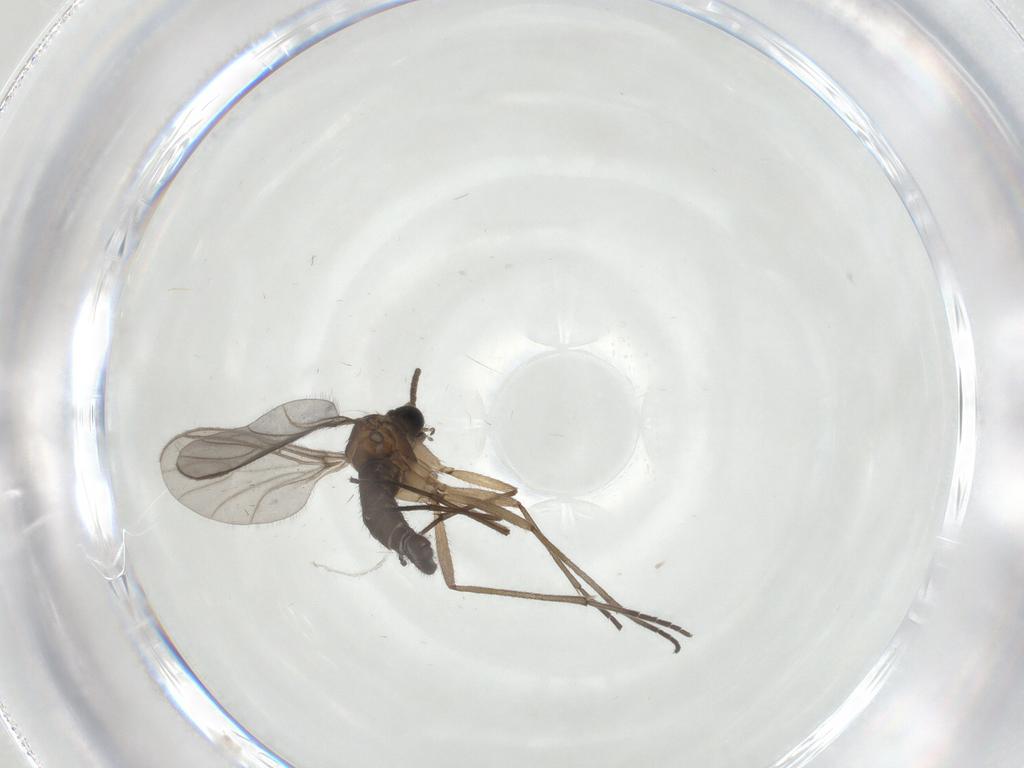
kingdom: Animalia
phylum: Arthropoda
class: Insecta
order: Diptera
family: Sciaridae
